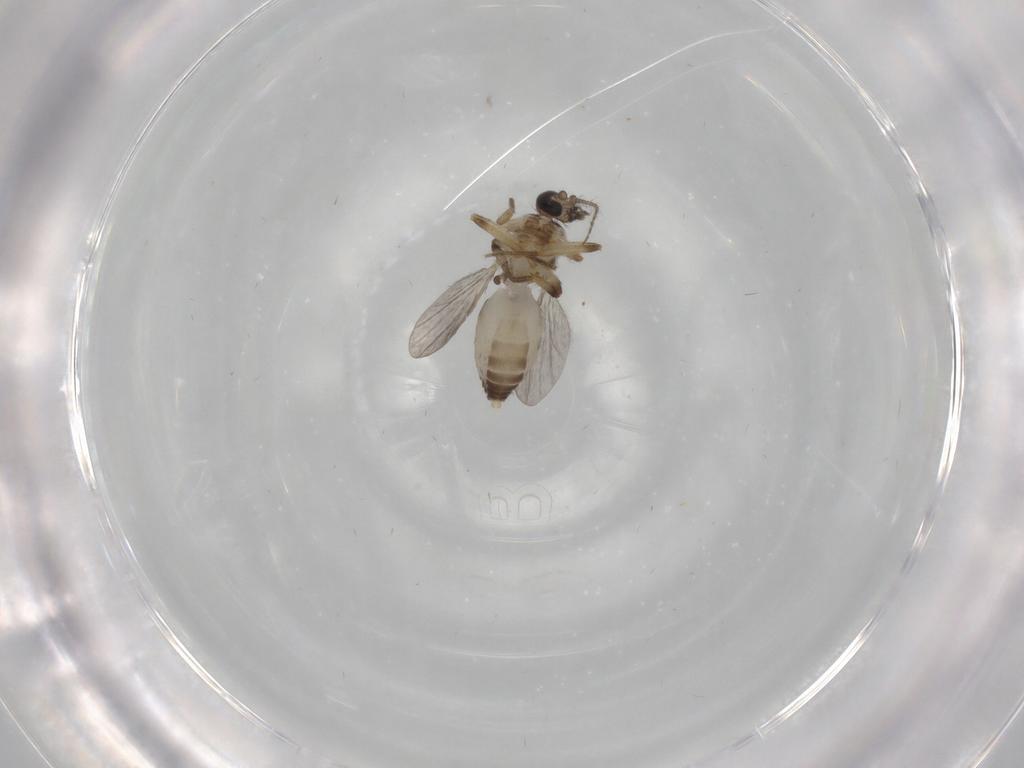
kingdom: Animalia
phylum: Arthropoda
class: Insecta
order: Diptera
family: Ceratopogonidae
